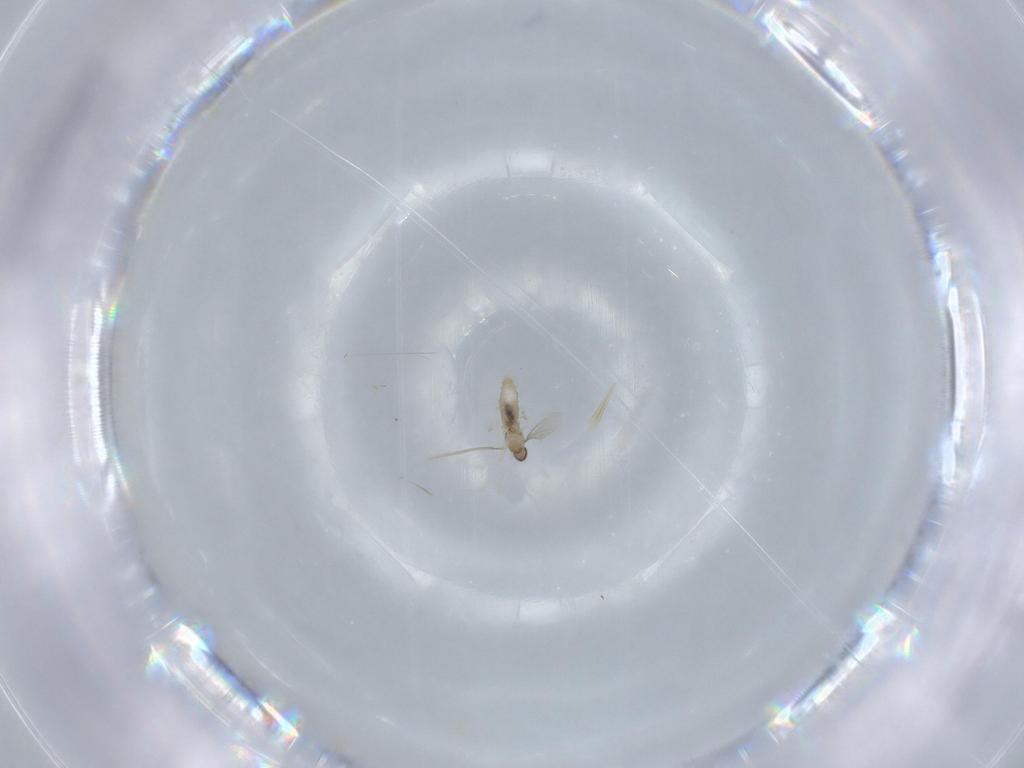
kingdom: Animalia
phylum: Arthropoda
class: Insecta
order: Diptera
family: Cecidomyiidae
